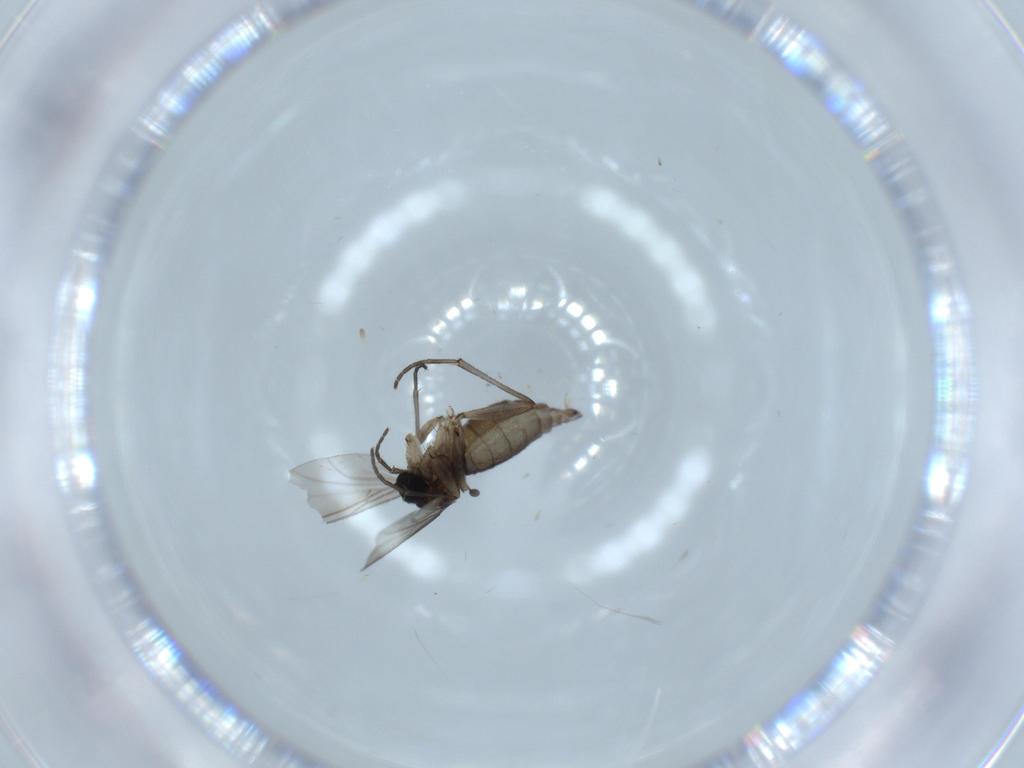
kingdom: Animalia
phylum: Arthropoda
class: Insecta
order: Diptera
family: Sciaridae
